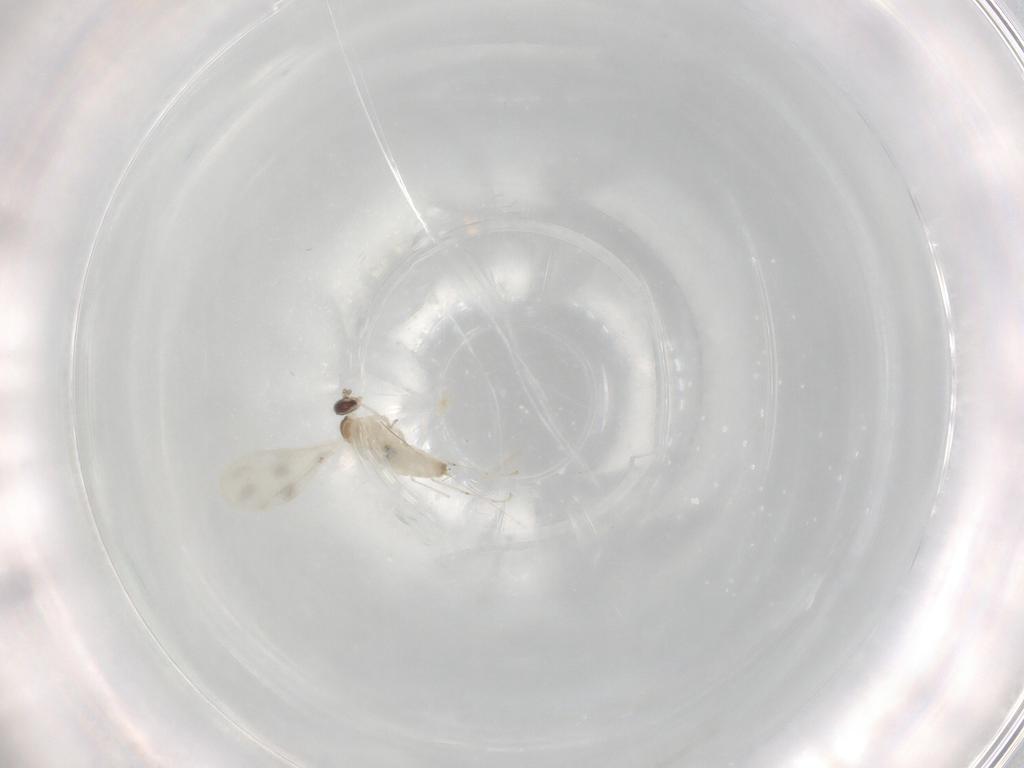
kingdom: Animalia
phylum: Arthropoda
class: Insecta
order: Diptera
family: Cecidomyiidae
